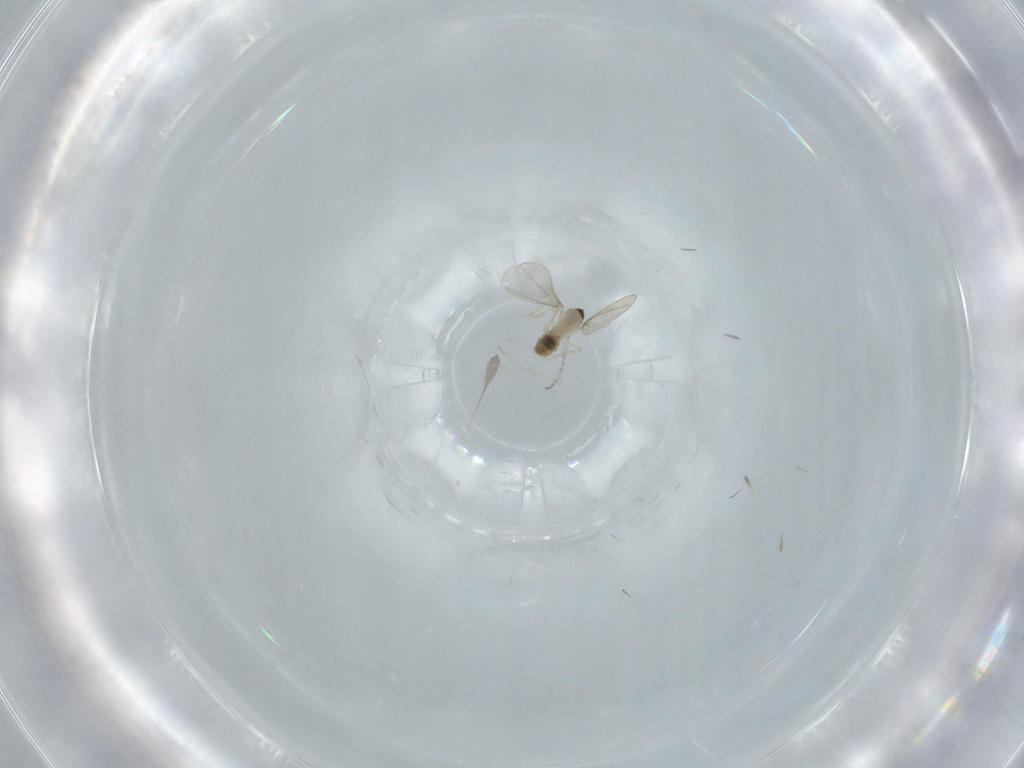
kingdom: Animalia
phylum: Arthropoda
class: Insecta
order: Diptera
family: Cecidomyiidae
